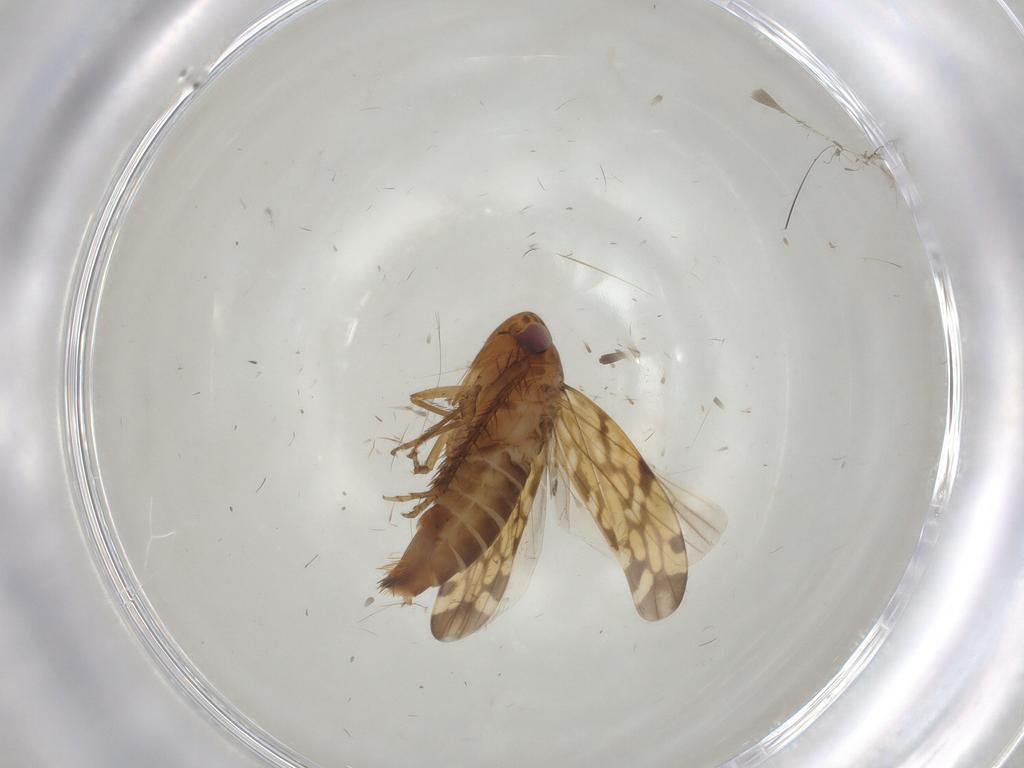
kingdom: Animalia
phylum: Arthropoda
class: Insecta
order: Hemiptera
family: Cicadellidae
